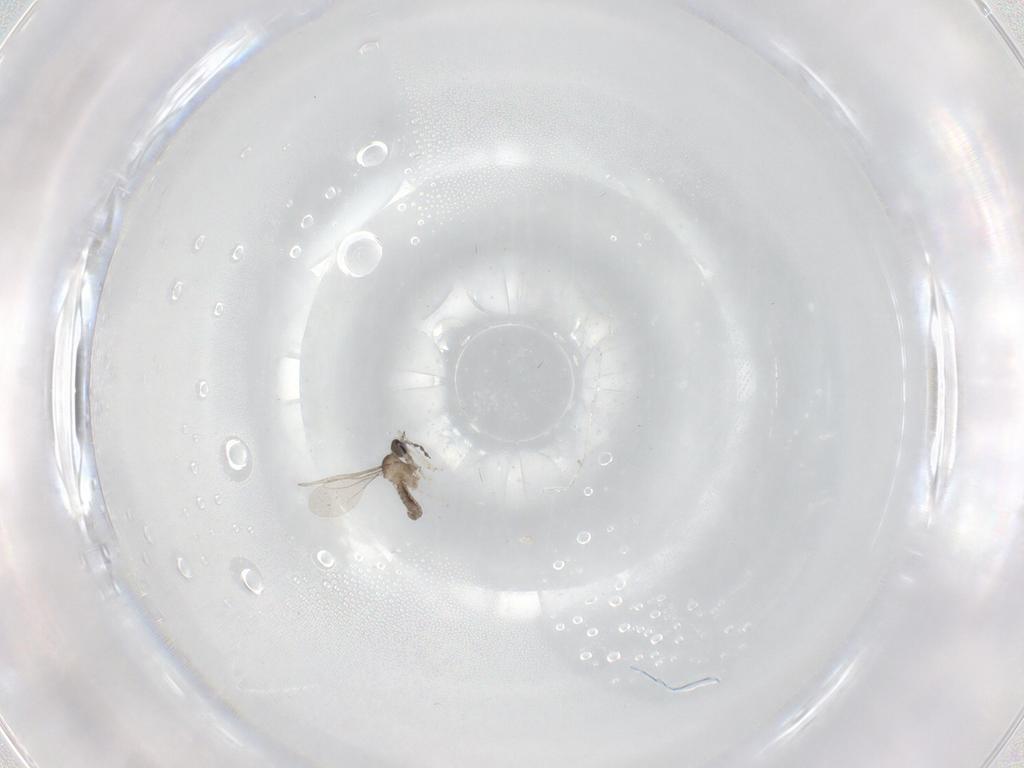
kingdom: Animalia
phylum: Arthropoda
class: Insecta
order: Diptera
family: Cecidomyiidae
